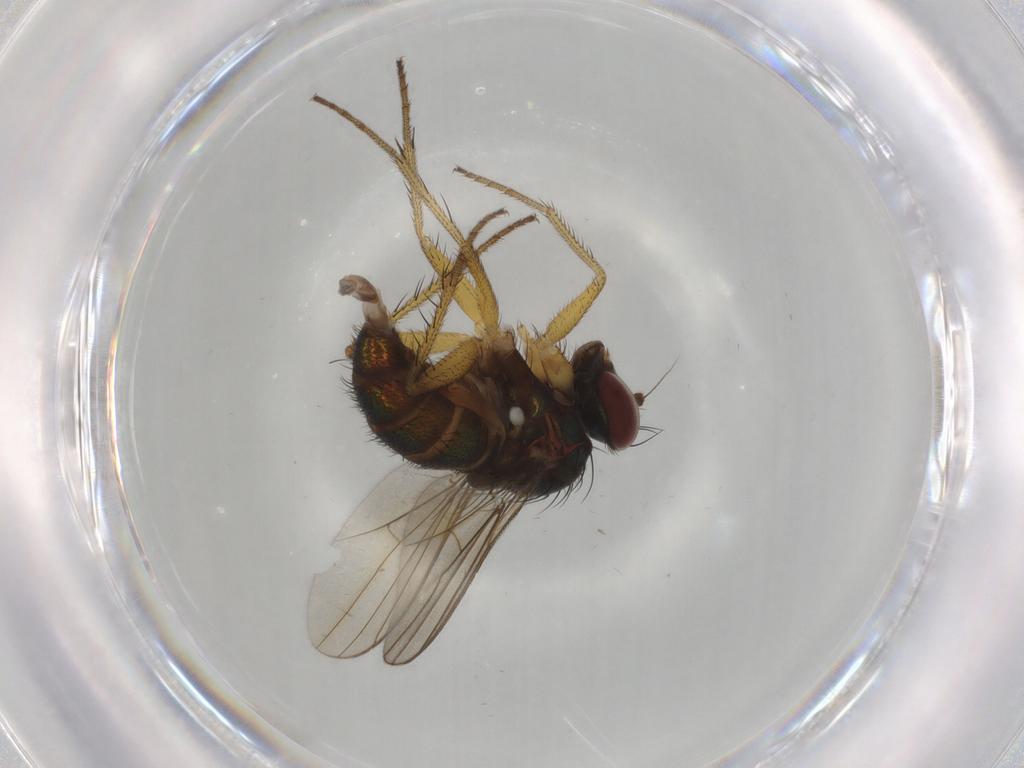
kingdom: Animalia
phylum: Arthropoda
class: Insecta
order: Diptera
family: Dolichopodidae
